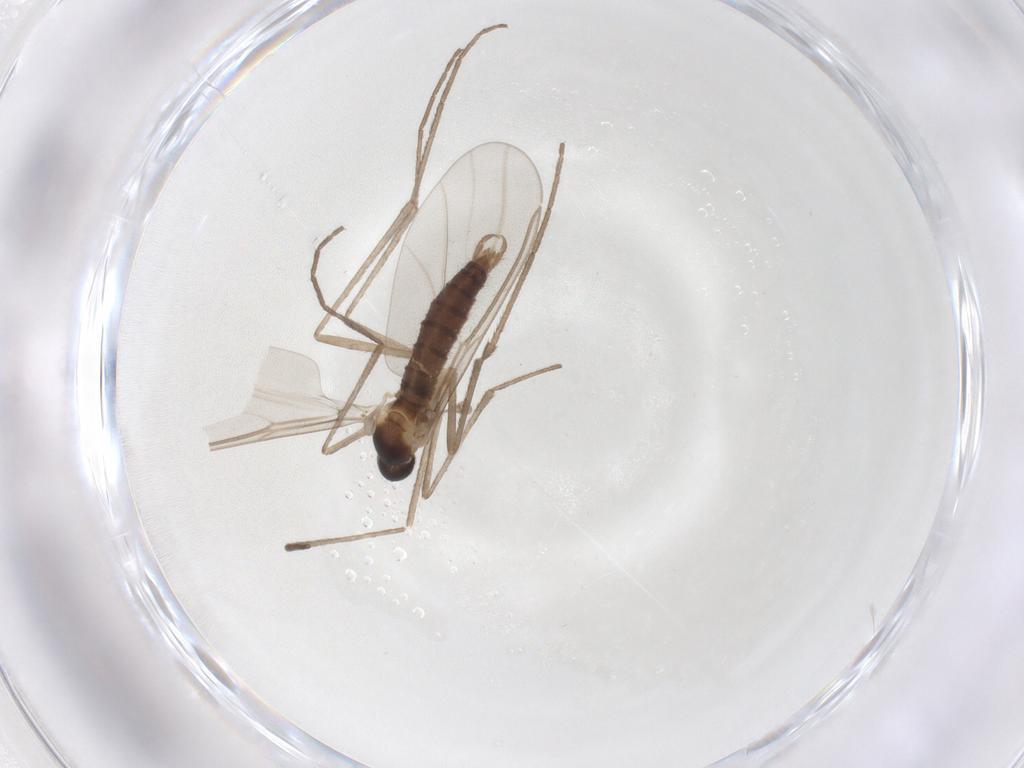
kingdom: Animalia
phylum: Arthropoda
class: Insecta
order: Diptera
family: Cecidomyiidae
